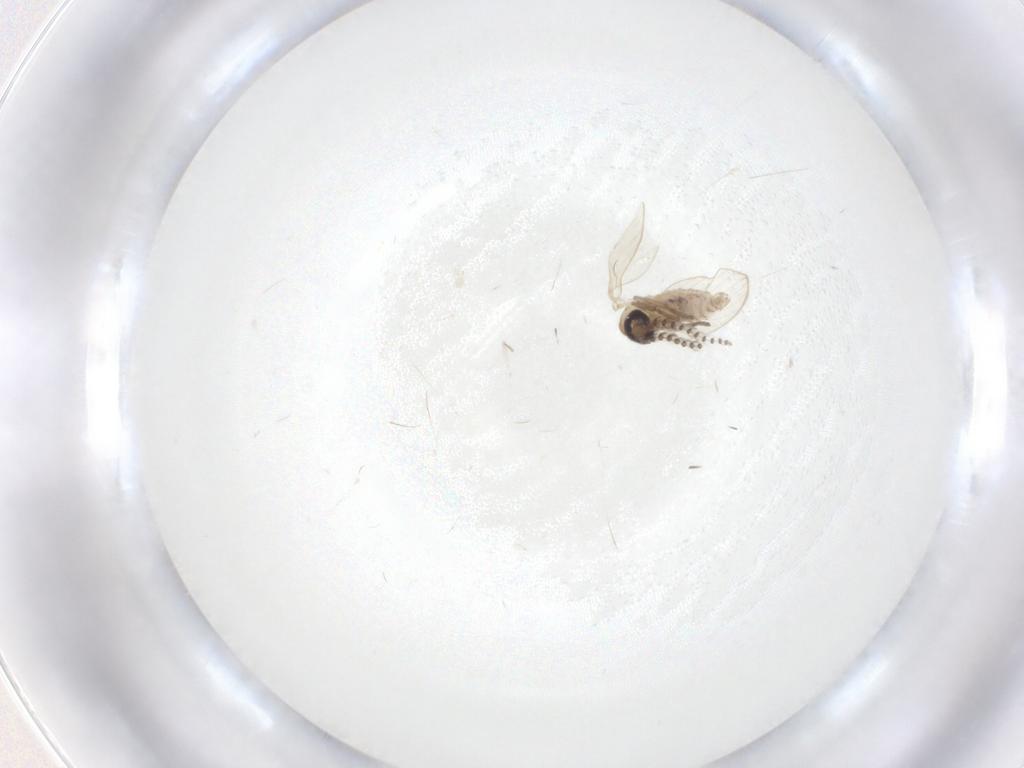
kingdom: Animalia
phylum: Arthropoda
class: Insecta
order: Diptera
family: Psychodidae
